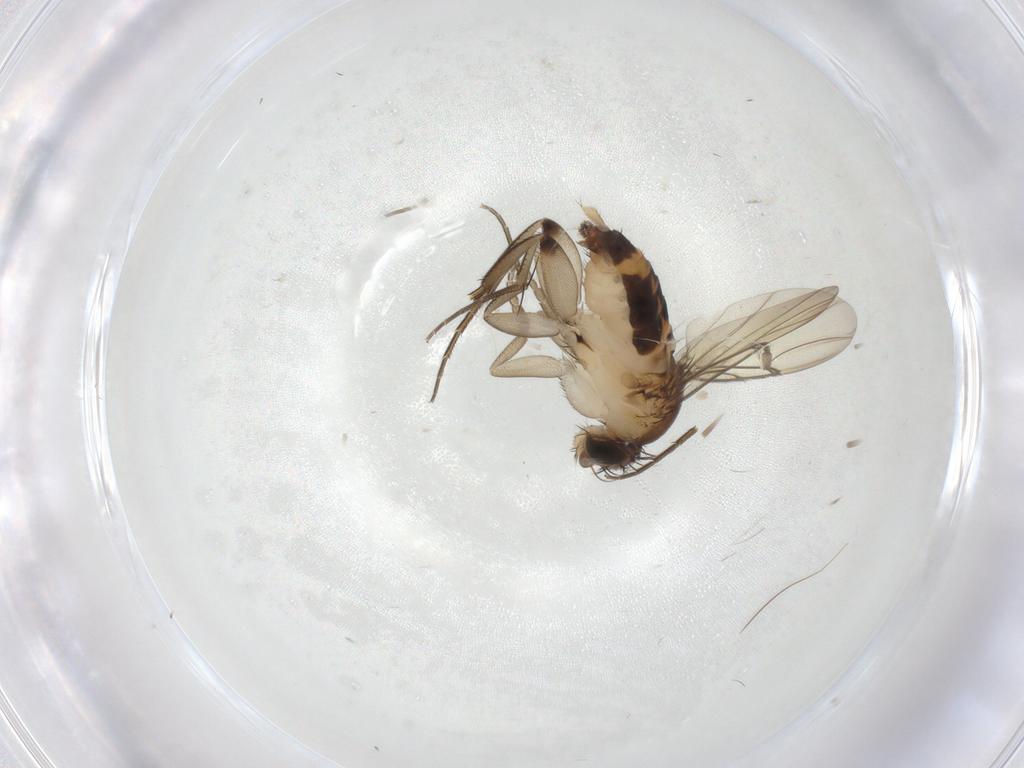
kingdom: Animalia
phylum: Arthropoda
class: Insecta
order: Diptera
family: Phoridae
